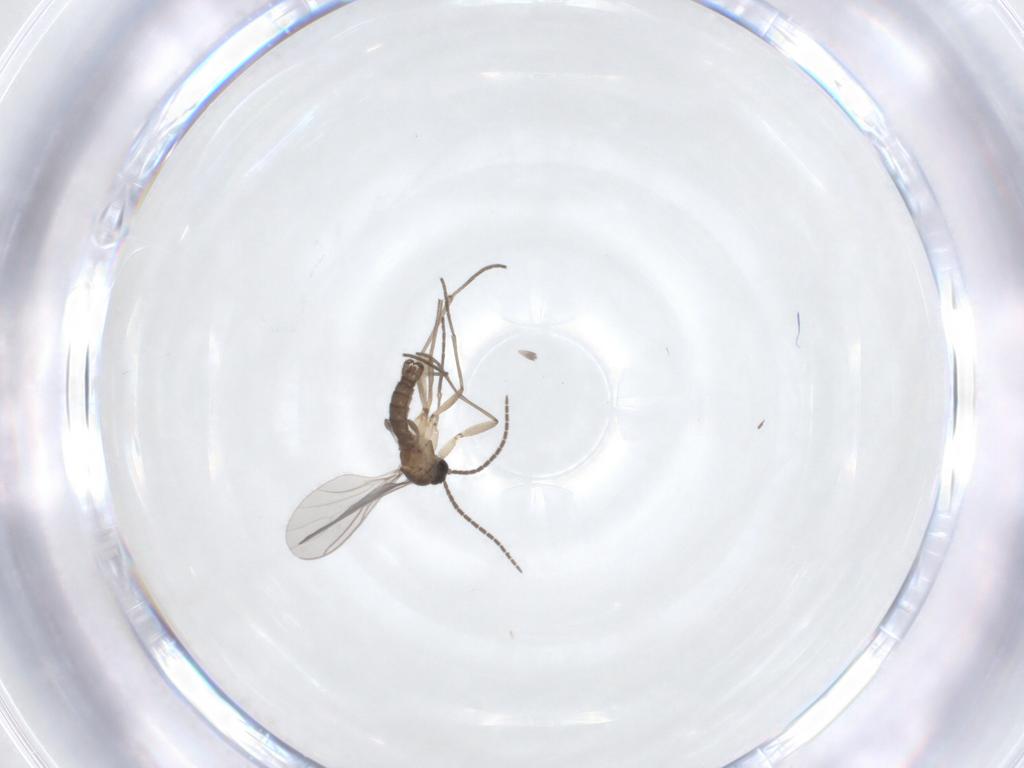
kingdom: Animalia
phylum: Arthropoda
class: Insecta
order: Diptera
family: Sciaridae
